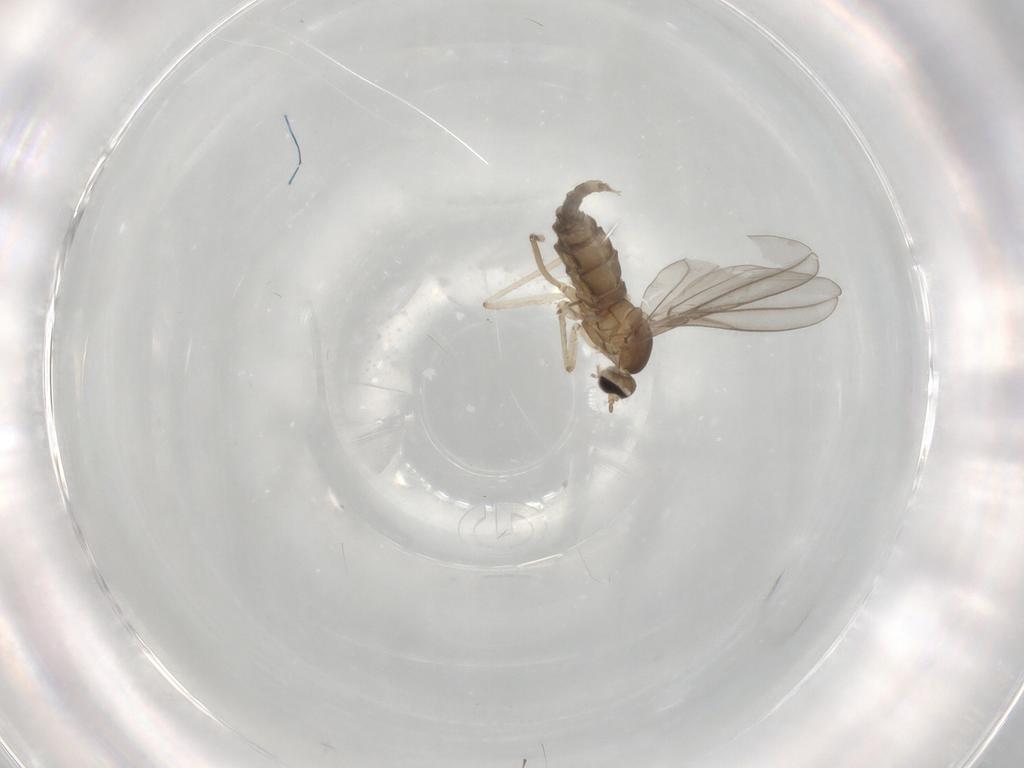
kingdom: Animalia
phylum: Arthropoda
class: Insecta
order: Diptera
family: Cecidomyiidae
